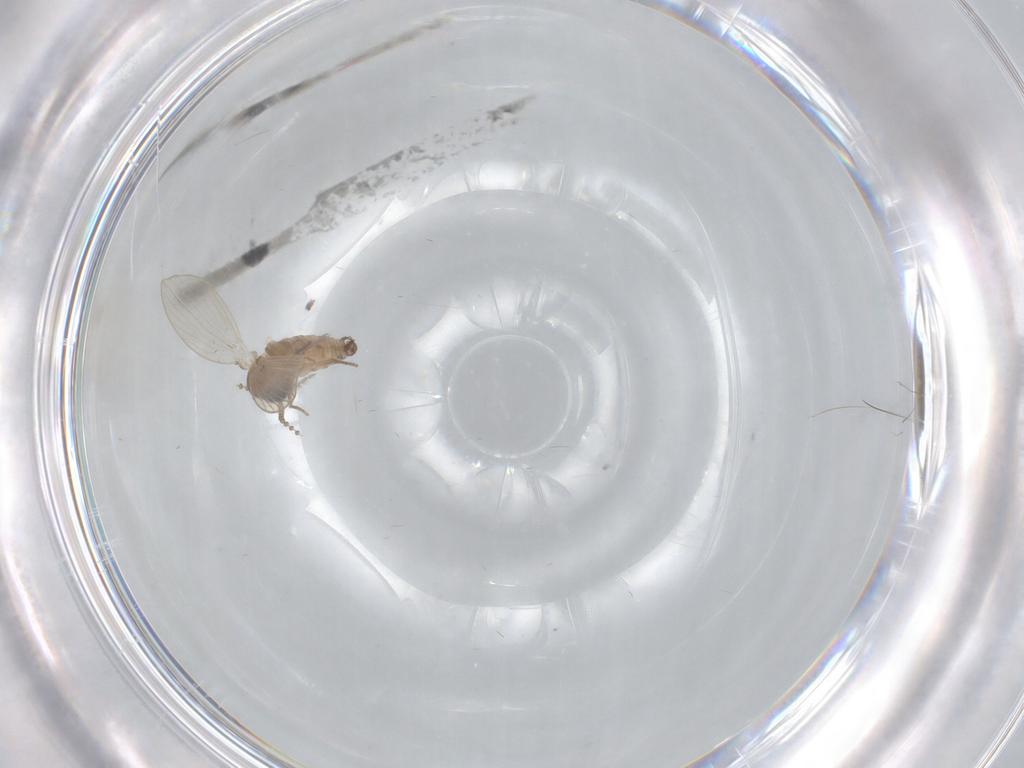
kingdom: Animalia
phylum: Arthropoda
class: Insecta
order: Diptera
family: Psychodidae
